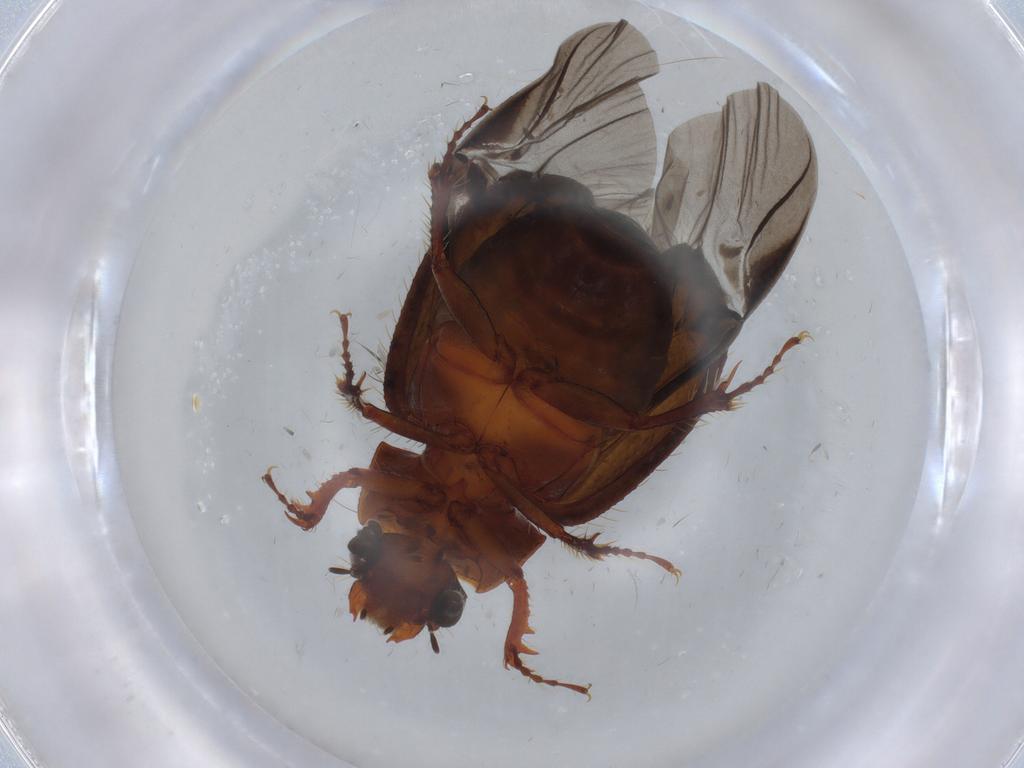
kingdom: Animalia
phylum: Arthropoda
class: Insecta
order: Coleoptera
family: Hybosoridae
